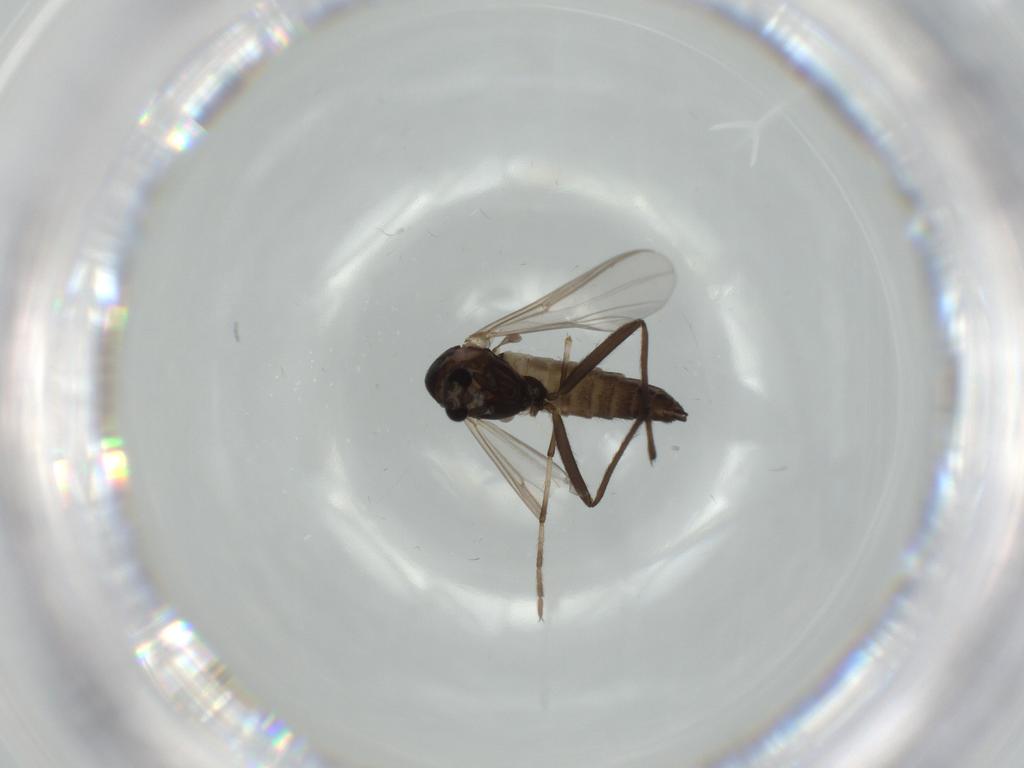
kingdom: Animalia
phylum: Arthropoda
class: Insecta
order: Diptera
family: Chironomidae
